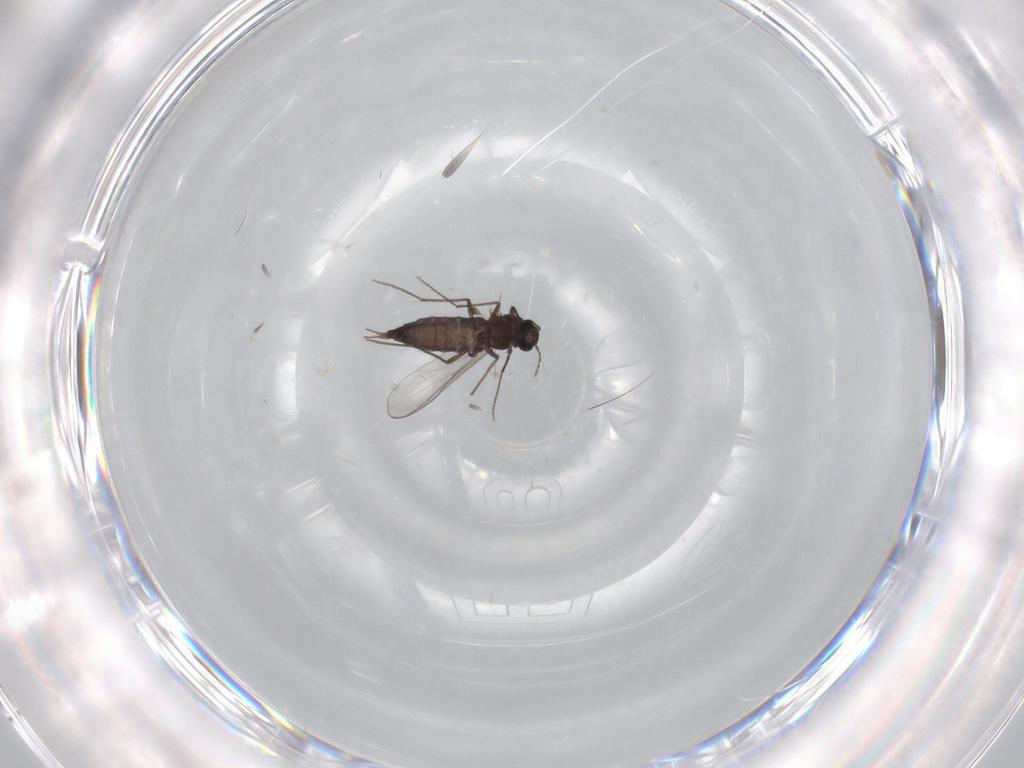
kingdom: Animalia
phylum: Arthropoda
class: Insecta
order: Diptera
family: Chironomidae
